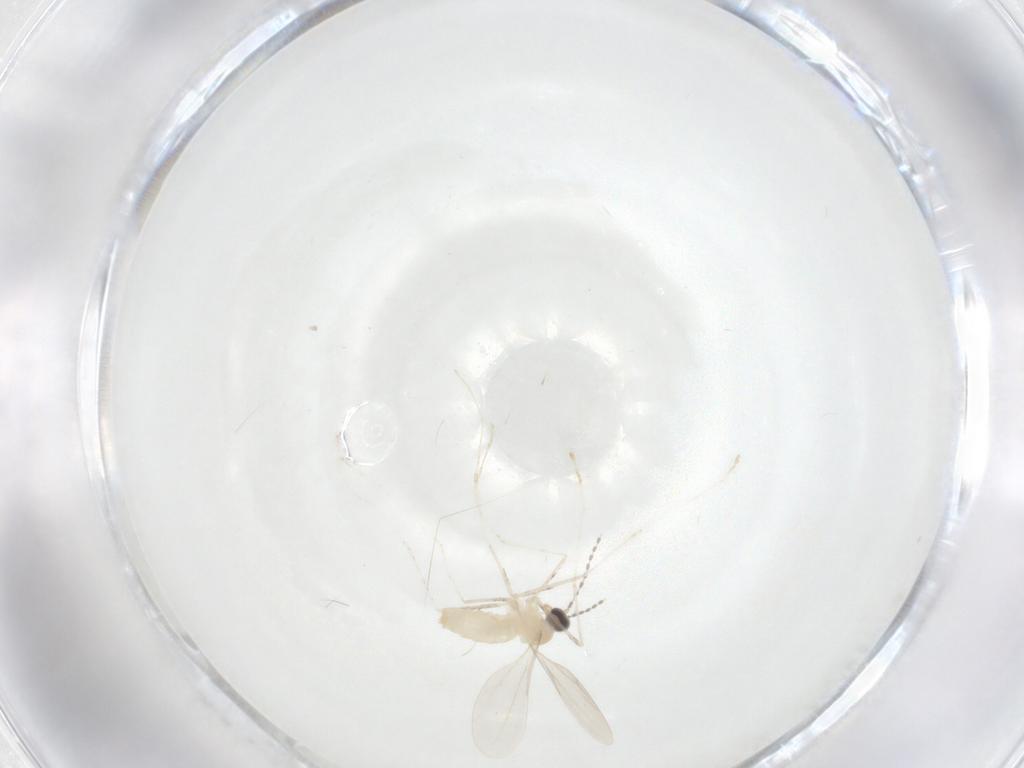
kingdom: Animalia
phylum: Arthropoda
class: Insecta
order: Diptera
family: Cecidomyiidae
